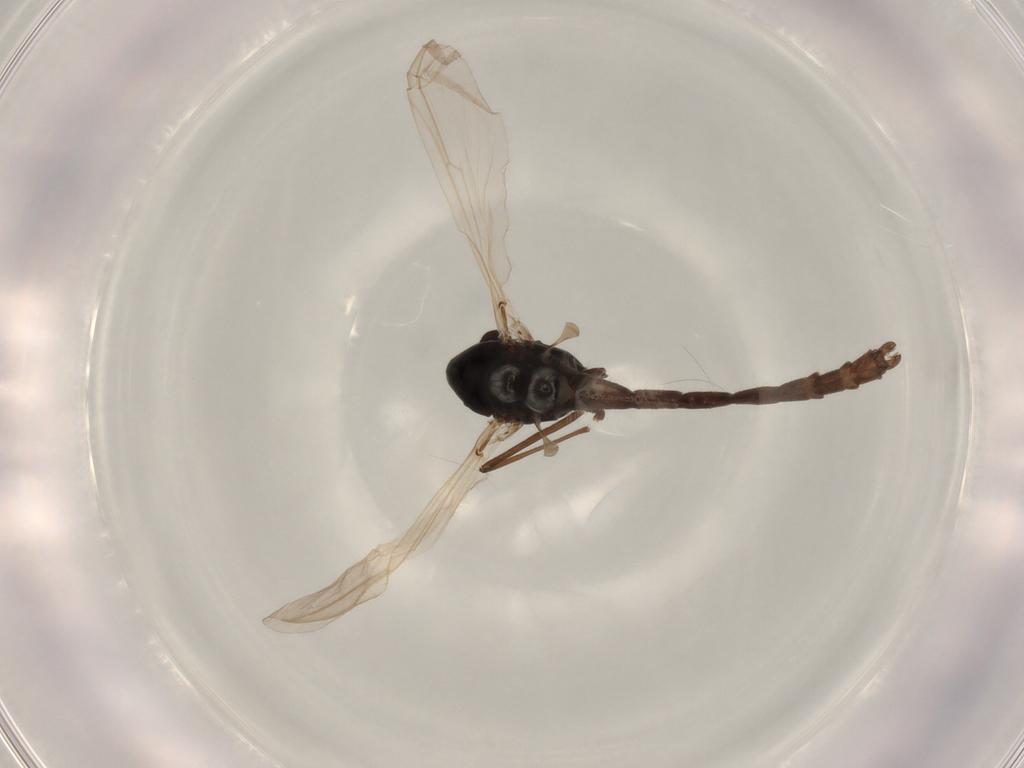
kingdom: Animalia
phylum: Arthropoda
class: Insecta
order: Diptera
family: Chironomidae
